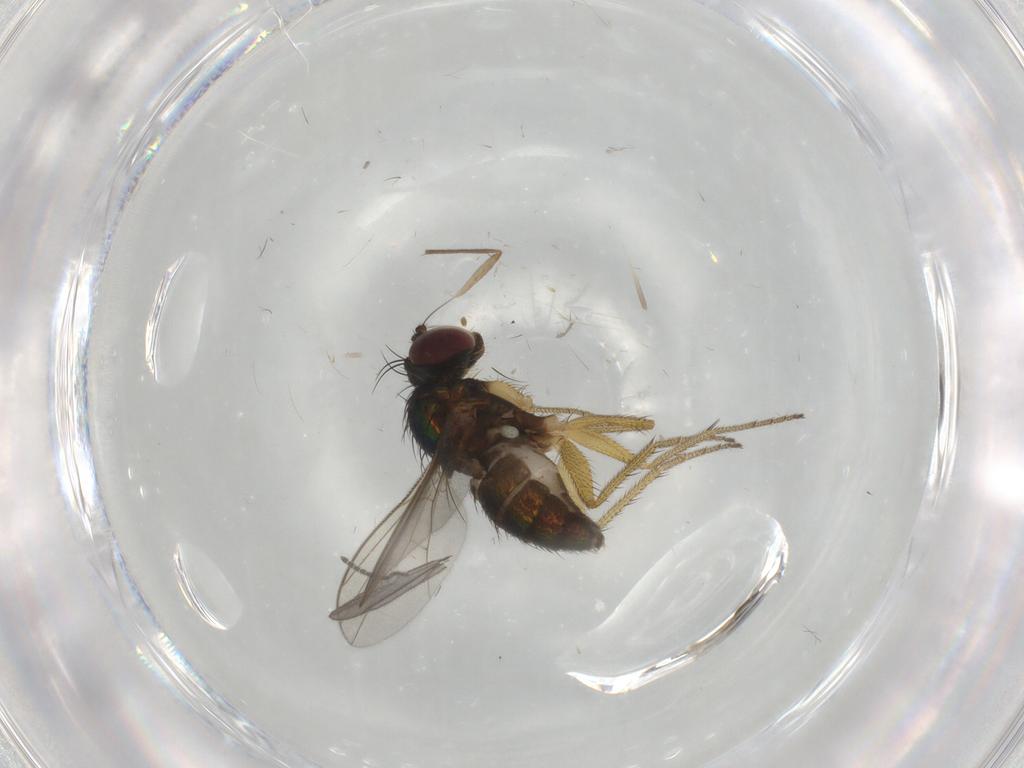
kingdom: Animalia
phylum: Arthropoda
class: Insecta
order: Diptera
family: Dolichopodidae
